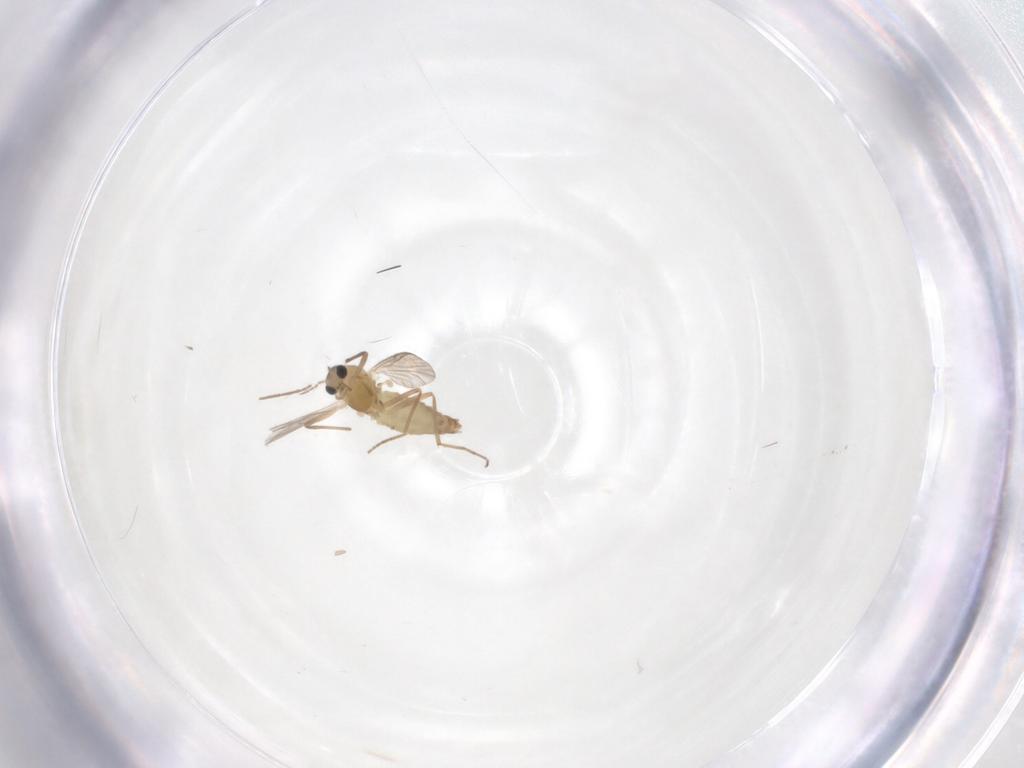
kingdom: Animalia
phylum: Arthropoda
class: Insecta
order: Diptera
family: Chironomidae
